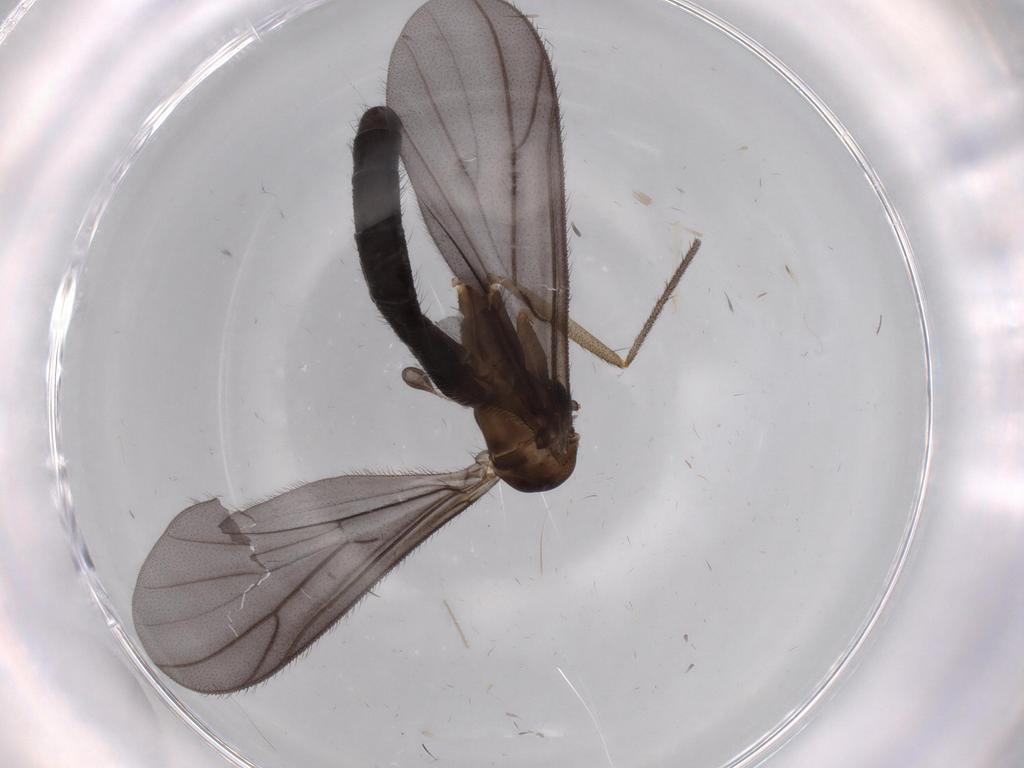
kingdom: Animalia
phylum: Arthropoda
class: Insecta
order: Diptera
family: Ditomyiidae
